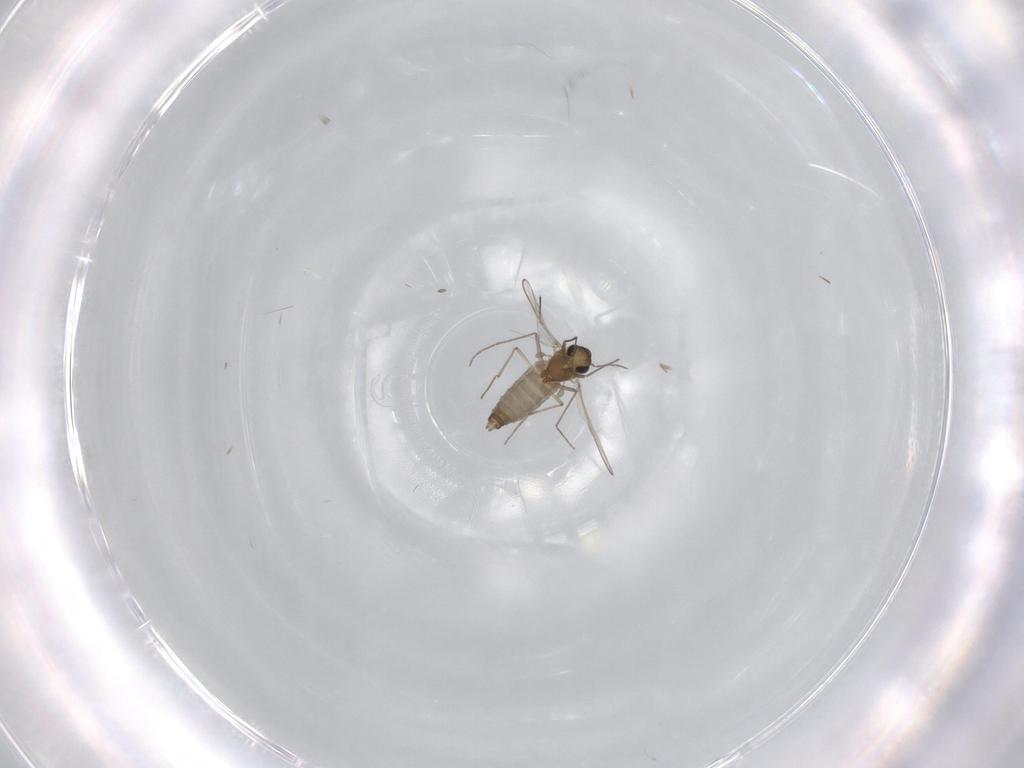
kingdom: Animalia
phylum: Arthropoda
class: Insecta
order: Diptera
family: Chironomidae
